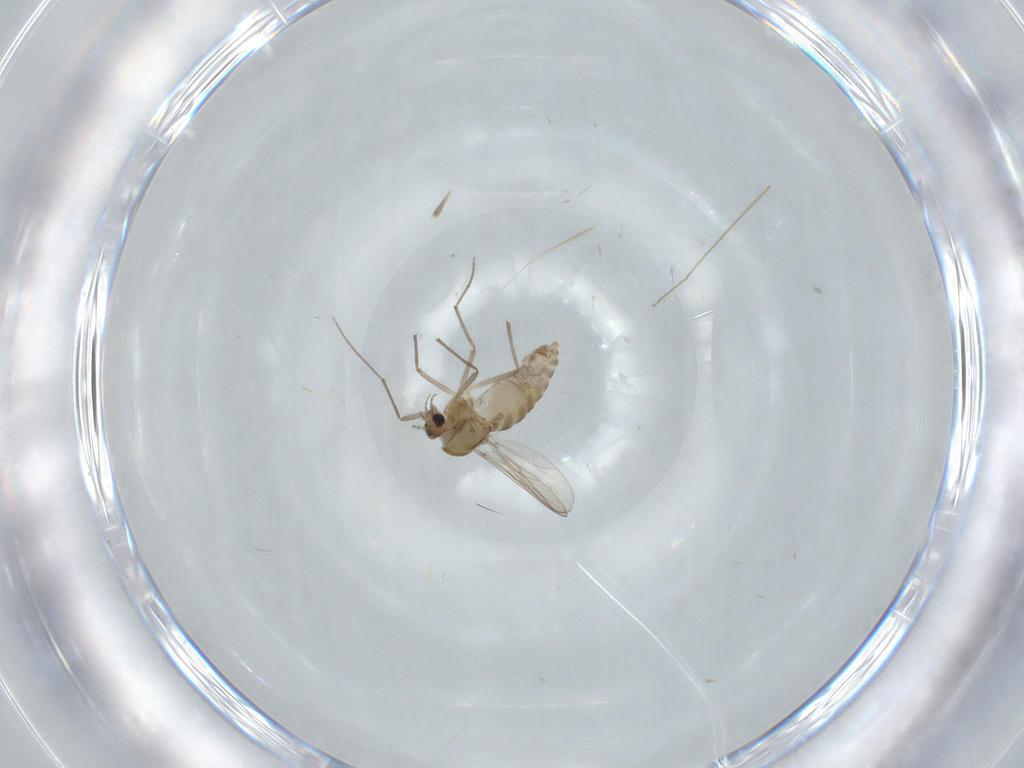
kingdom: Animalia
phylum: Arthropoda
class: Insecta
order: Diptera
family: Chironomidae
